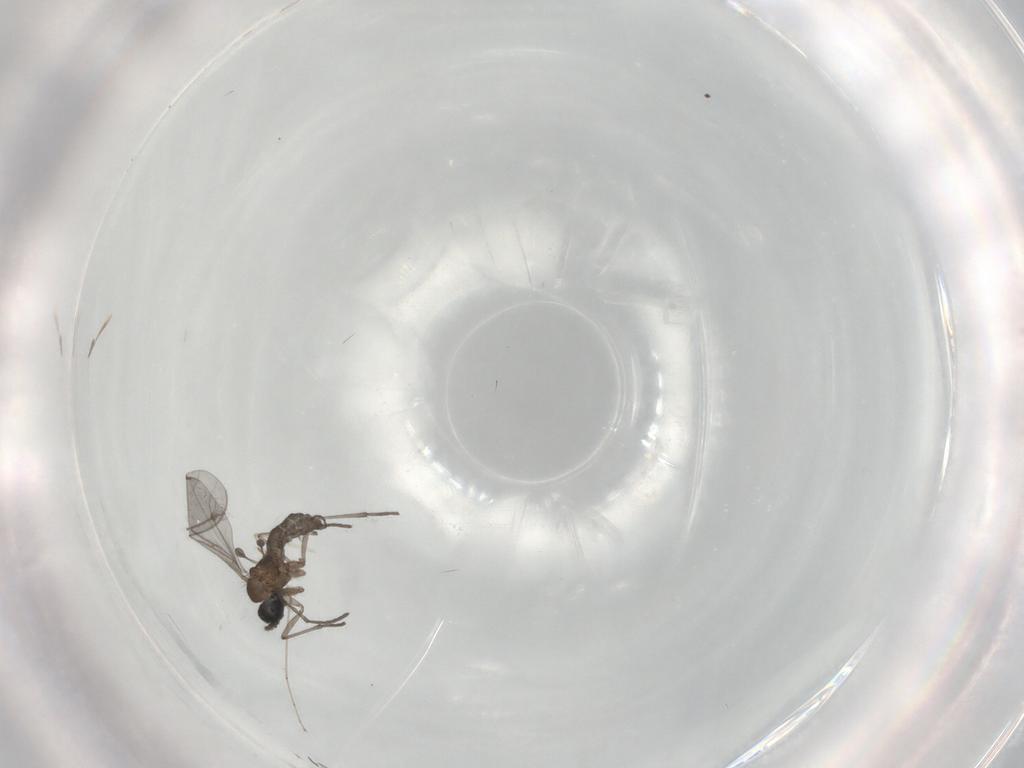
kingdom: Animalia
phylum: Arthropoda
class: Insecta
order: Diptera
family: Cecidomyiidae
